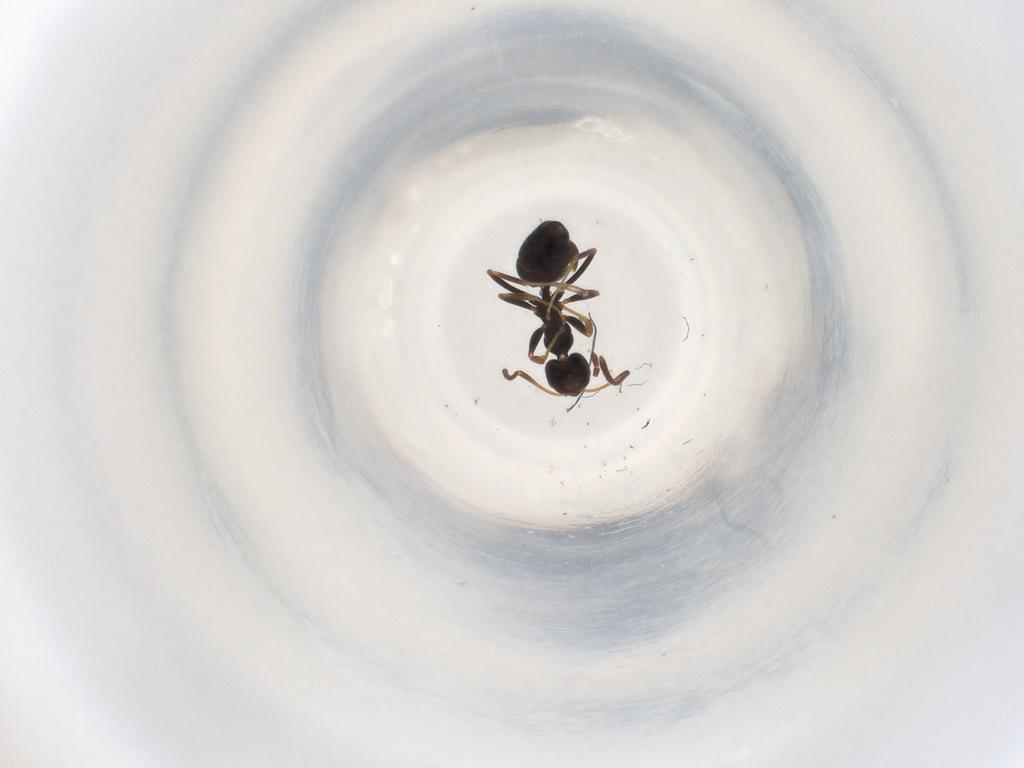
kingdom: Animalia
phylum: Arthropoda
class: Insecta
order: Hymenoptera
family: Formicidae
